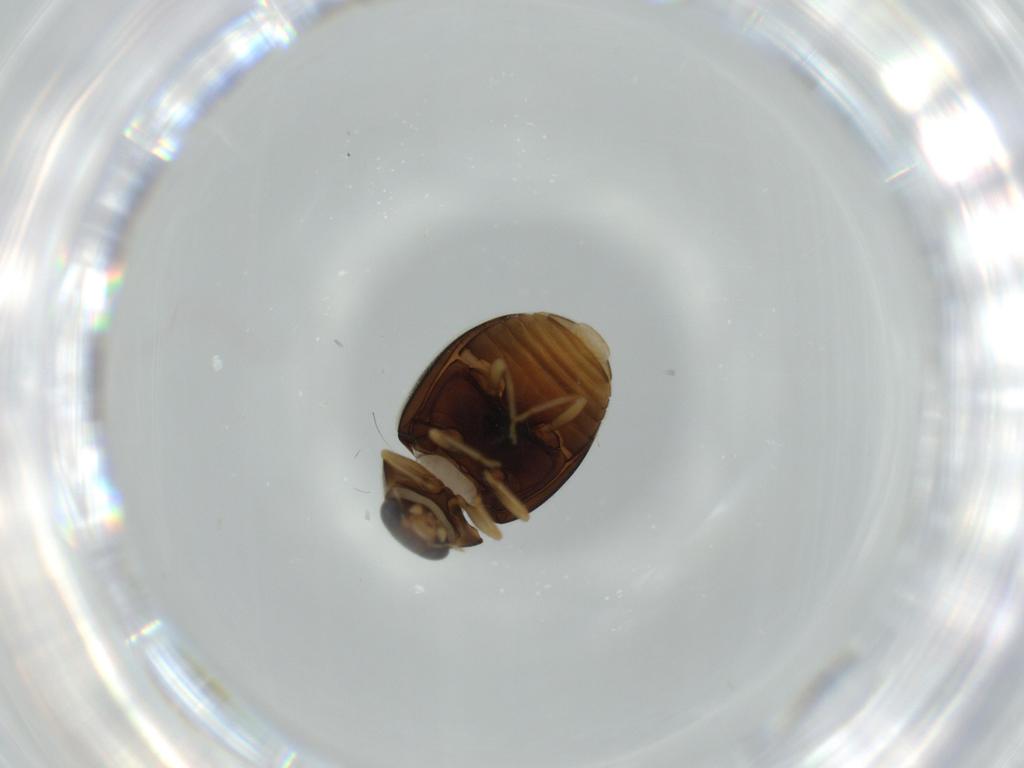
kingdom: Animalia
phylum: Arthropoda
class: Insecta
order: Coleoptera
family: Coccinellidae
